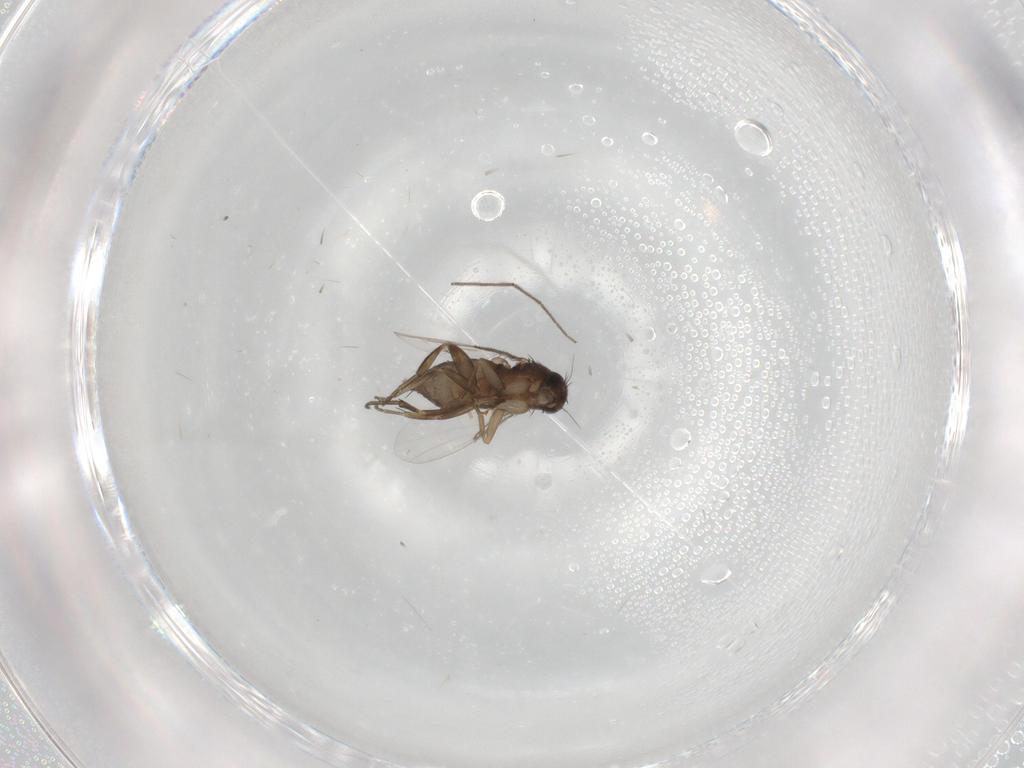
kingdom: Animalia
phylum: Arthropoda
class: Insecta
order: Diptera
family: Phoridae
